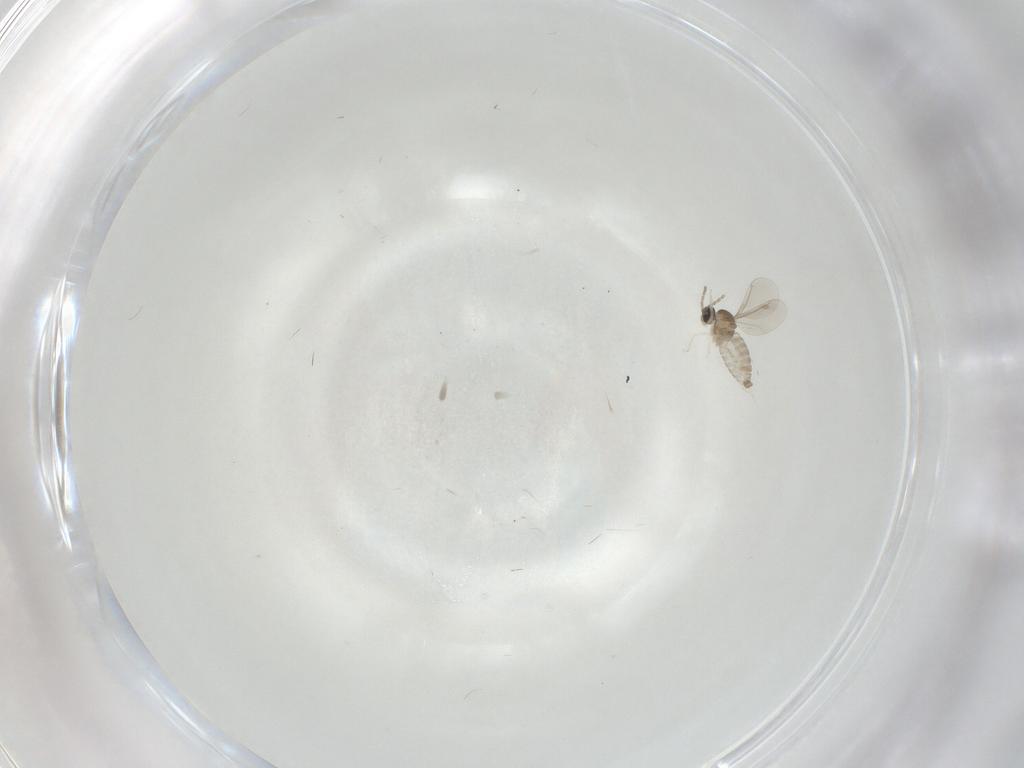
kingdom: Animalia
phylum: Arthropoda
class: Insecta
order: Diptera
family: Cecidomyiidae
